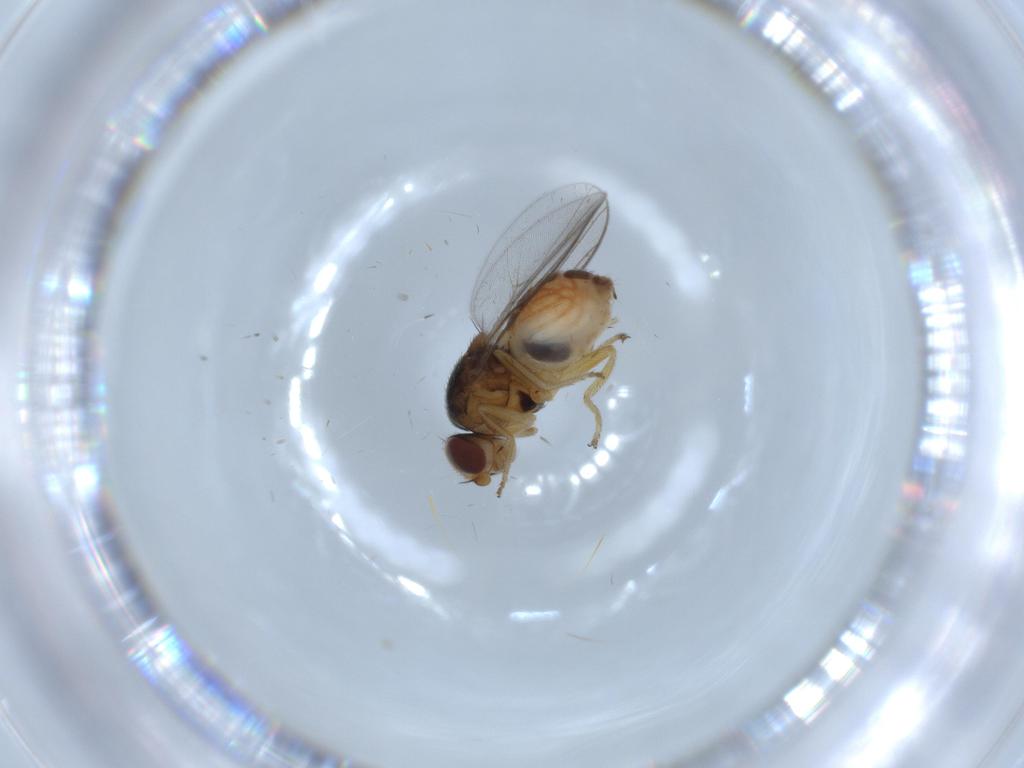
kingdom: Animalia
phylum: Arthropoda
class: Insecta
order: Diptera
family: Chloropidae
